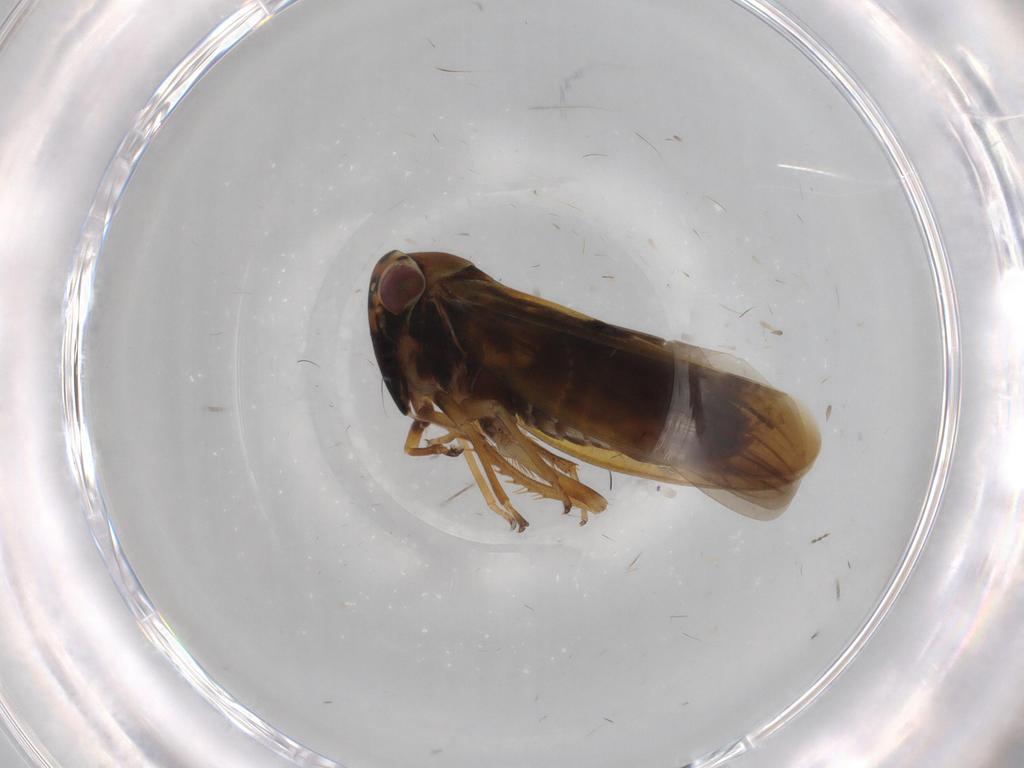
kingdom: Animalia
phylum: Arthropoda
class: Insecta
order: Hemiptera
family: Cicadellidae
